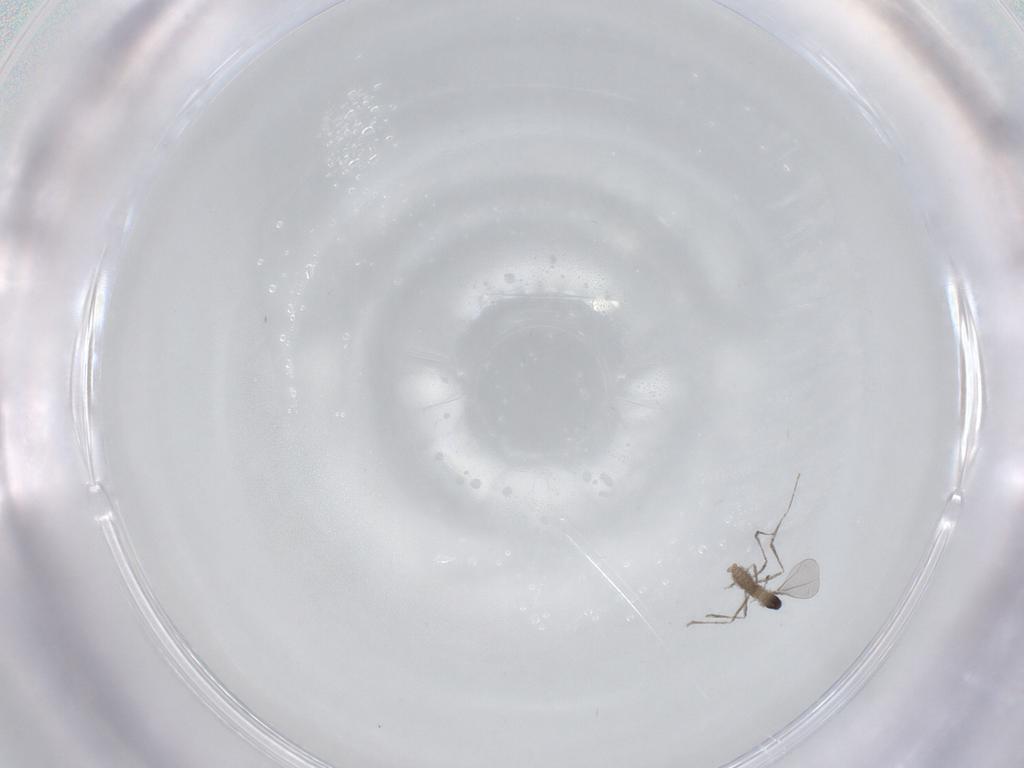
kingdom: Animalia
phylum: Arthropoda
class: Insecta
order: Diptera
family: Cecidomyiidae
